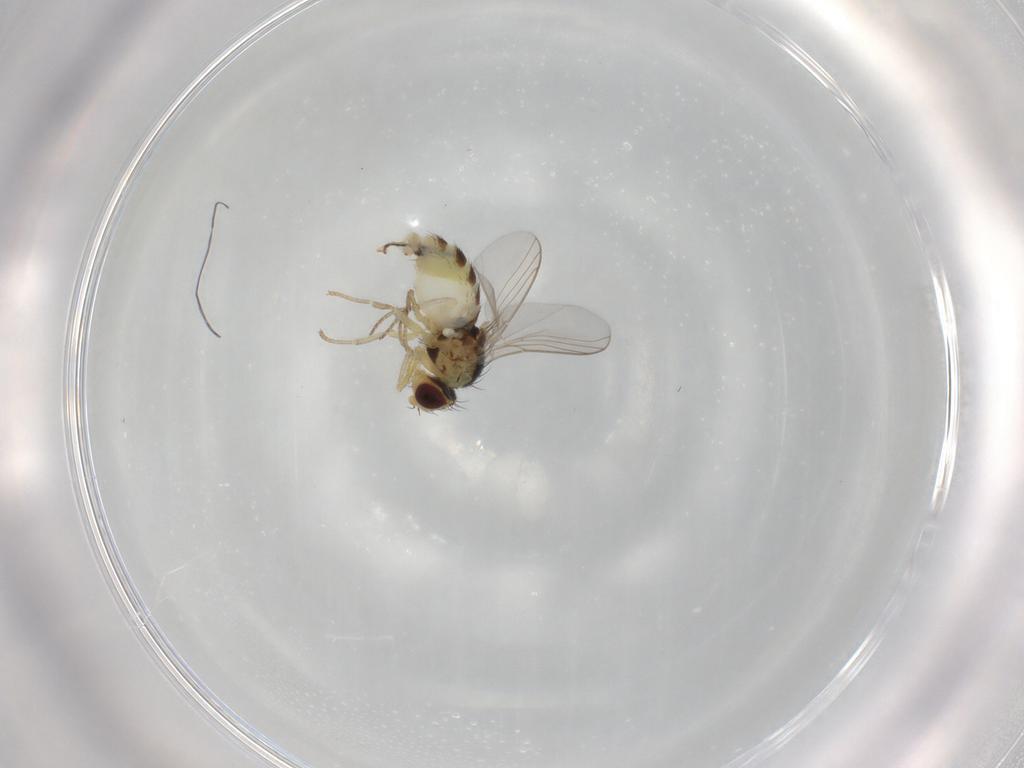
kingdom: Animalia
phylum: Arthropoda
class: Insecta
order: Diptera
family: Agromyzidae
